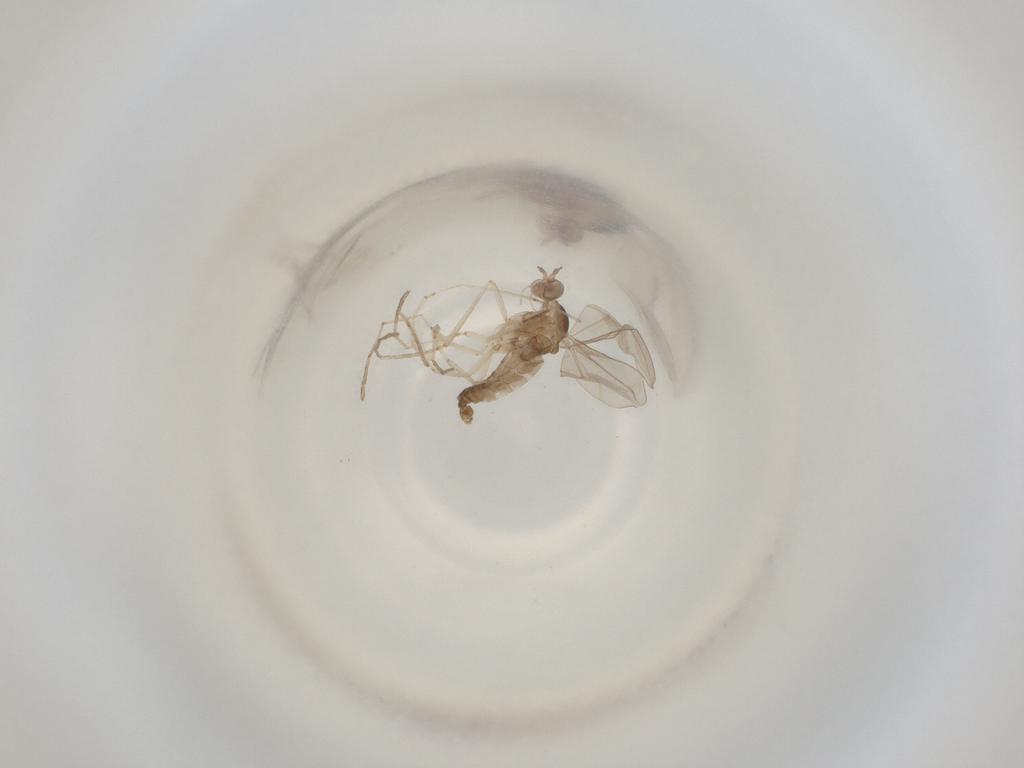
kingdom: Animalia
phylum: Arthropoda
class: Insecta
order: Diptera
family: Cecidomyiidae
